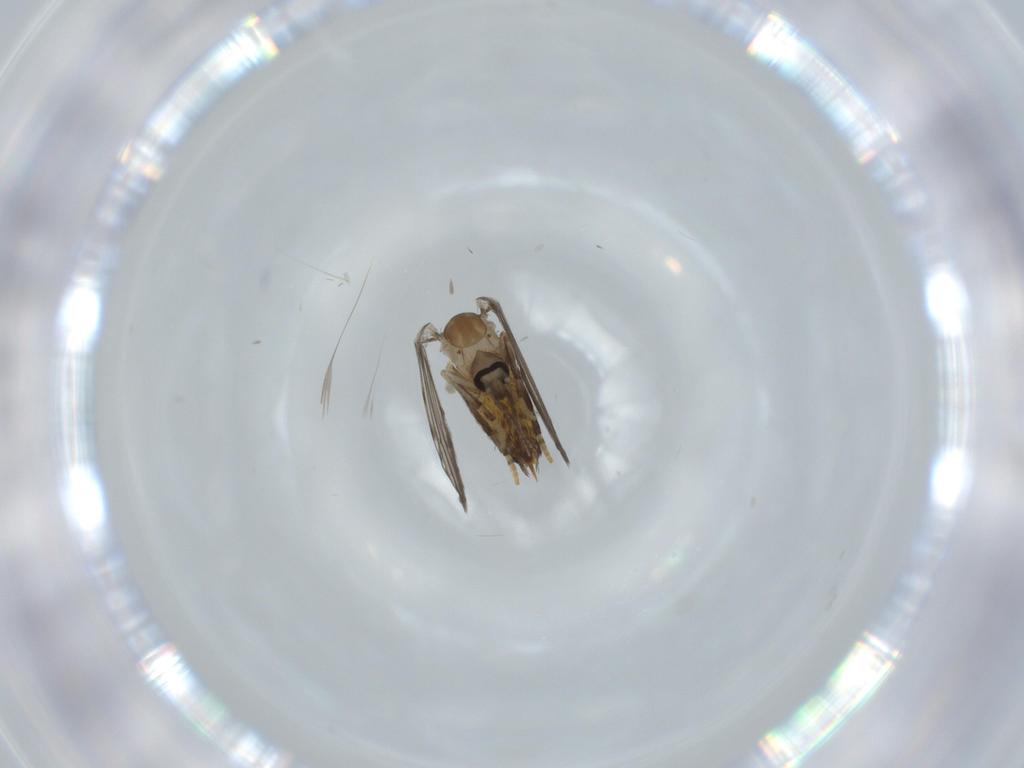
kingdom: Animalia
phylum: Arthropoda
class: Insecta
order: Diptera
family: Psychodidae
